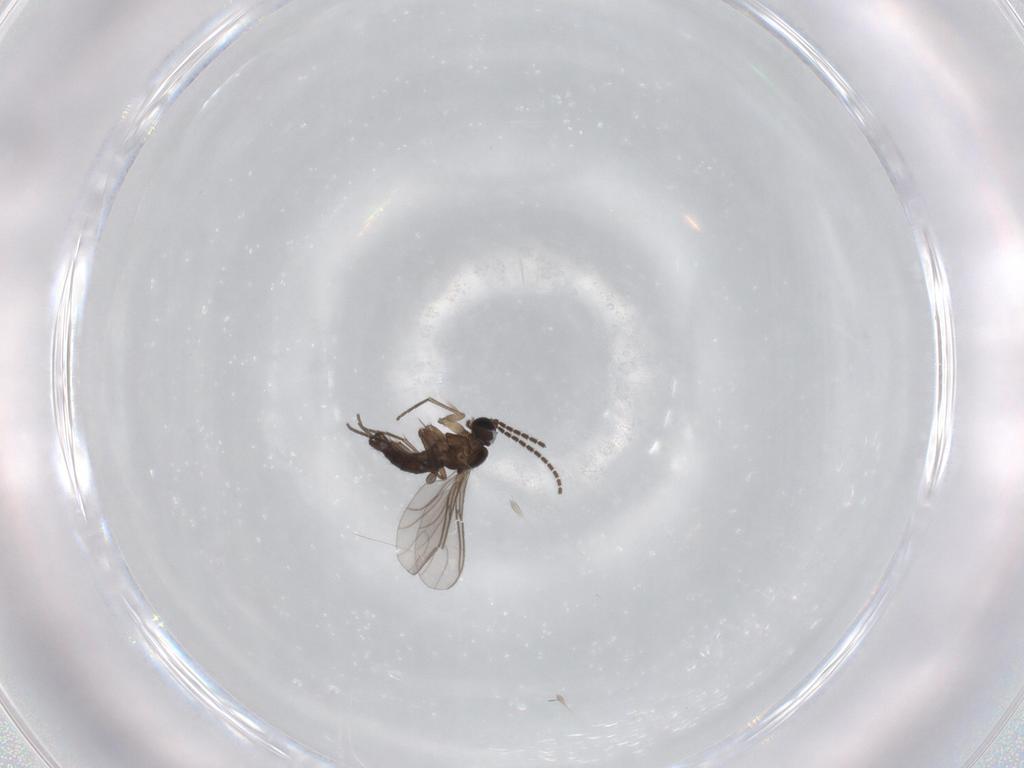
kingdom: Animalia
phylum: Arthropoda
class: Insecta
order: Diptera
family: Sciaridae
